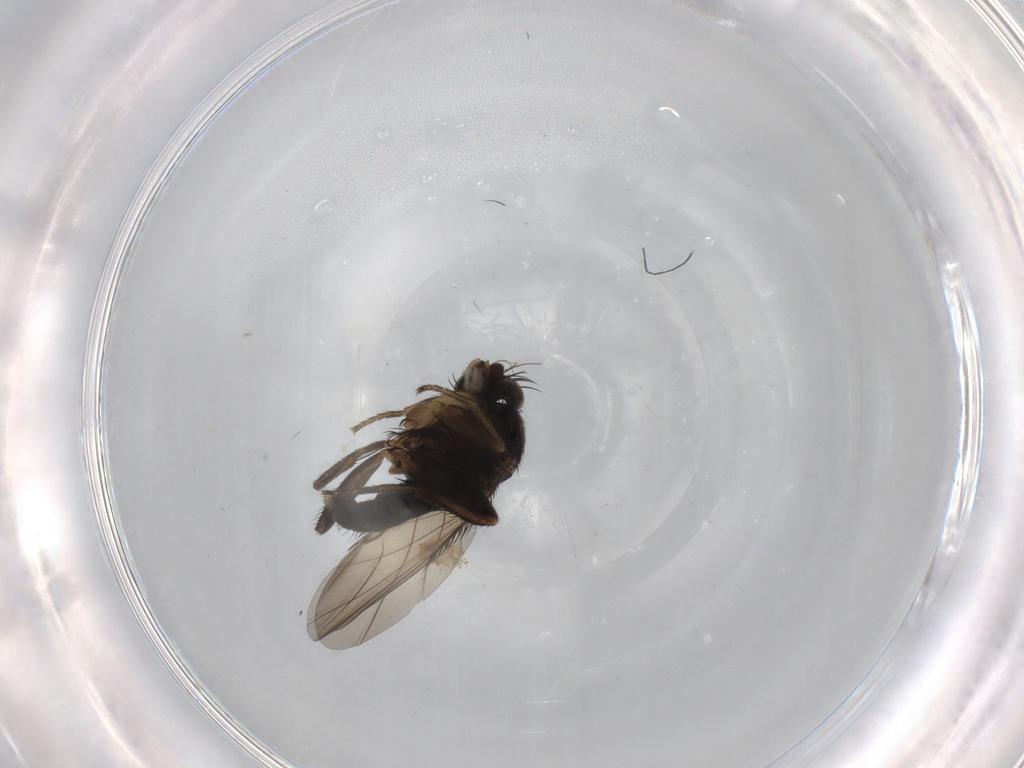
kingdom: Animalia
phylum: Arthropoda
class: Insecta
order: Diptera
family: Phoridae
